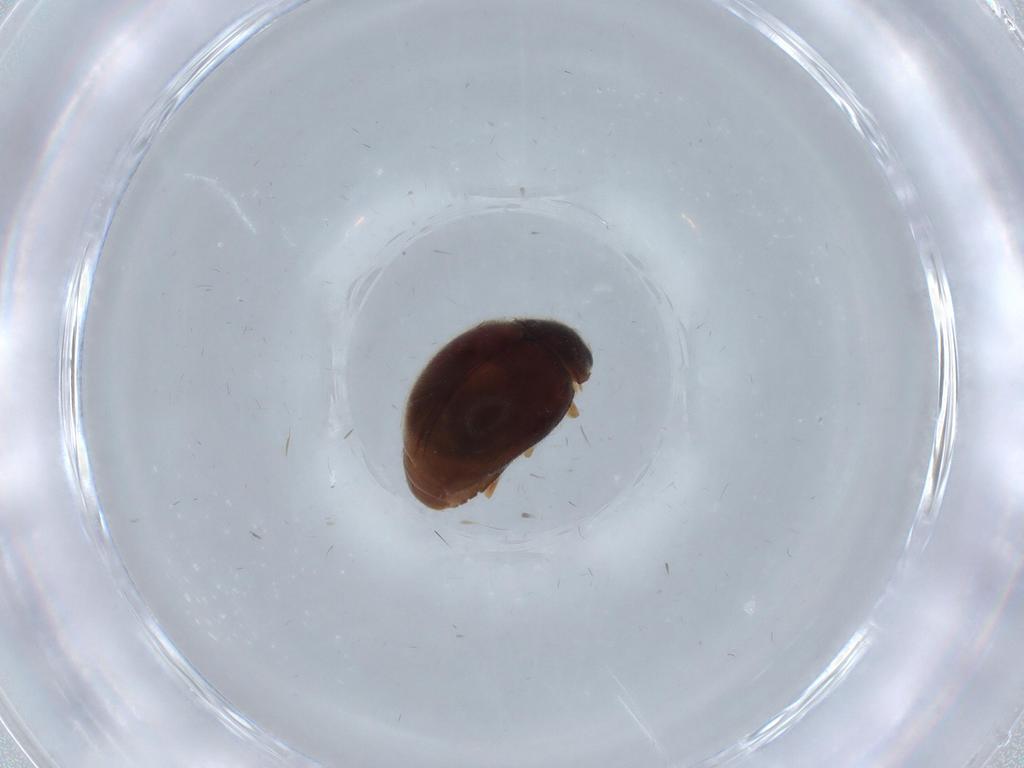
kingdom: Animalia
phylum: Arthropoda
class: Insecta
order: Coleoptera
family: Coccinellidae
